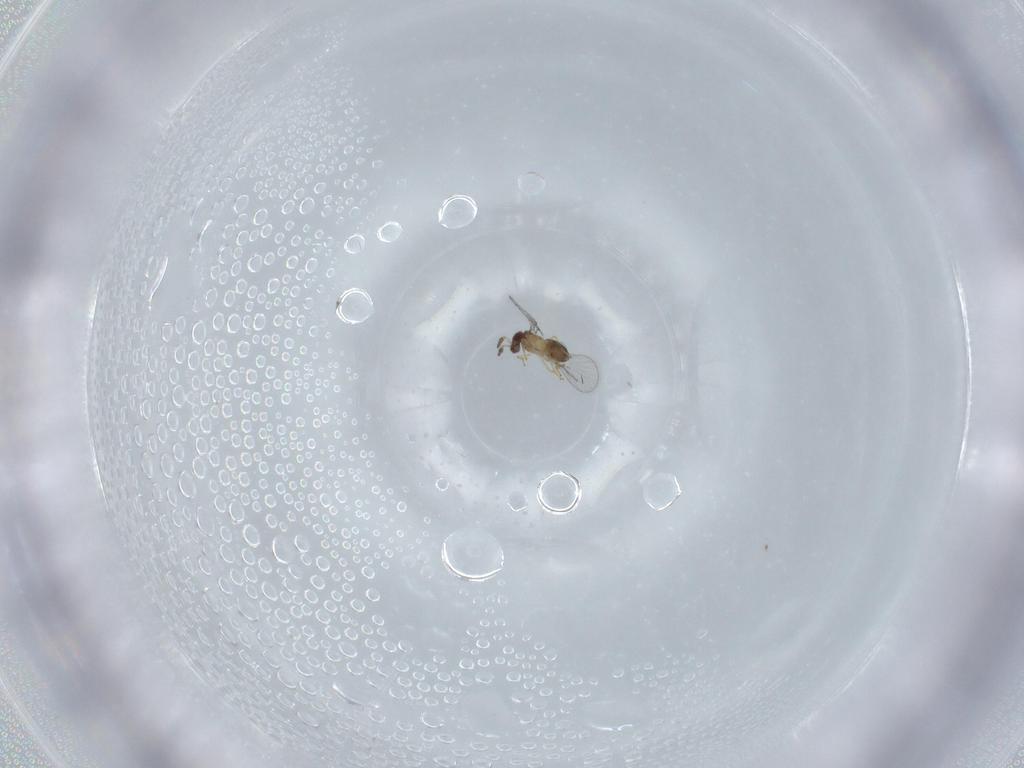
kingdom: Animalia
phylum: Arthropoda
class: Insecta
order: Hymenoptera
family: Trichogrammatidae
